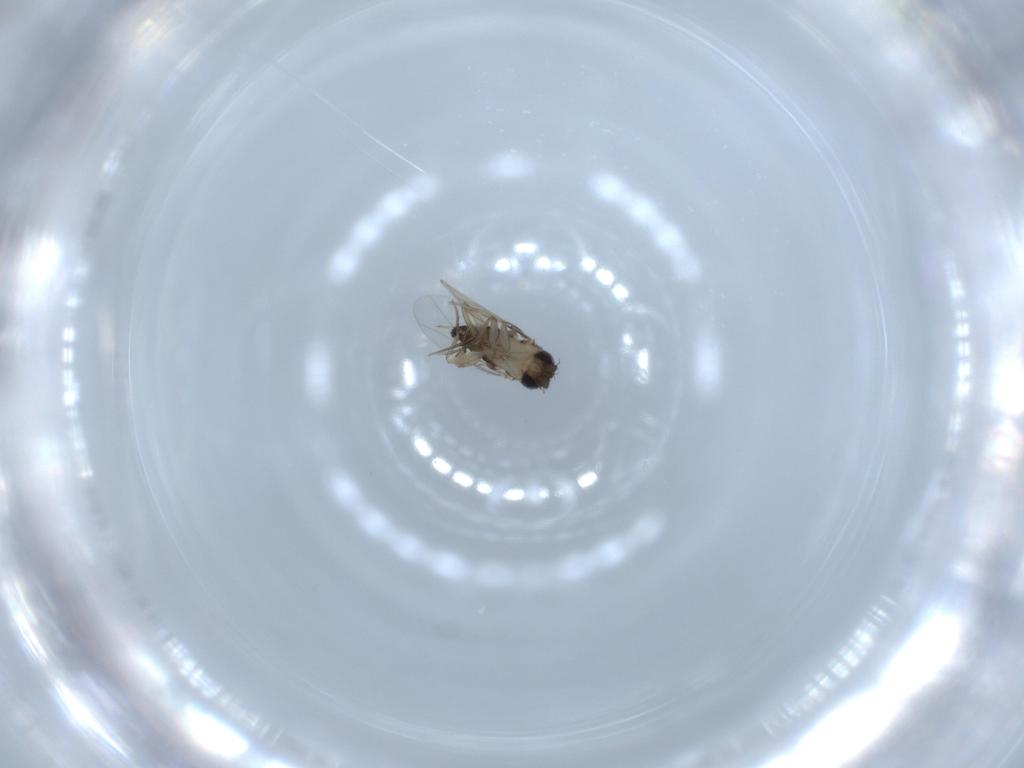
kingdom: Animalia
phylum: Arthropoda
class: Insecta
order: Diptera
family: Phoridae
